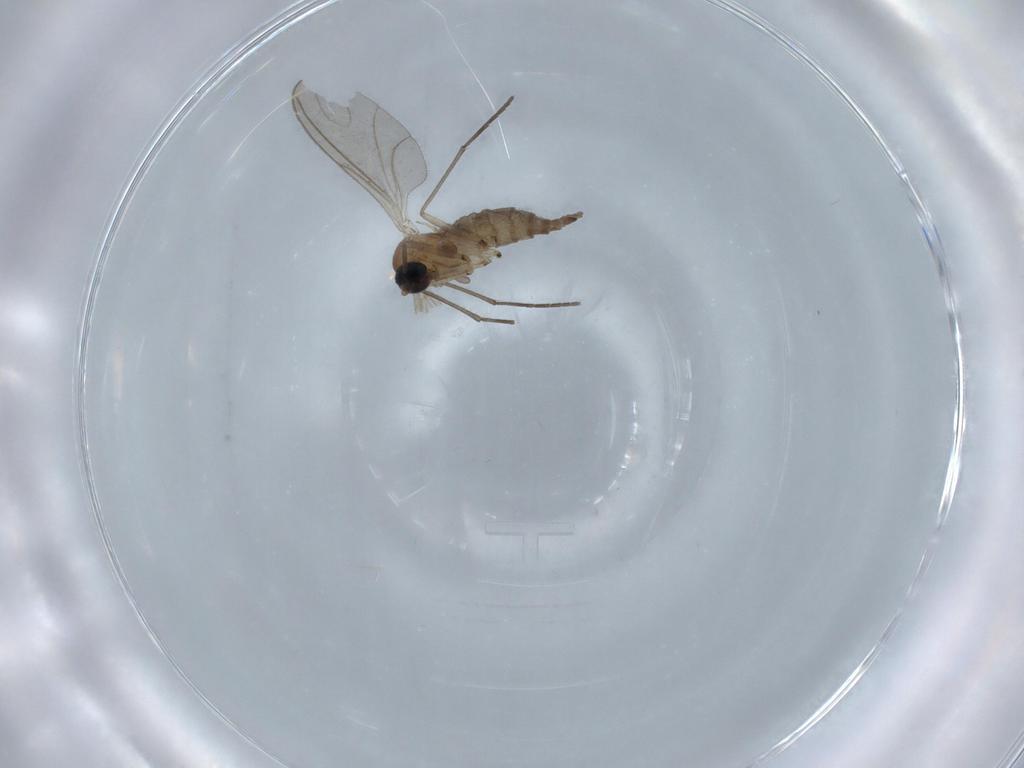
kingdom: Animalia
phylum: Arthropoda
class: Insecta
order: Diptera
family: Sciaridae
